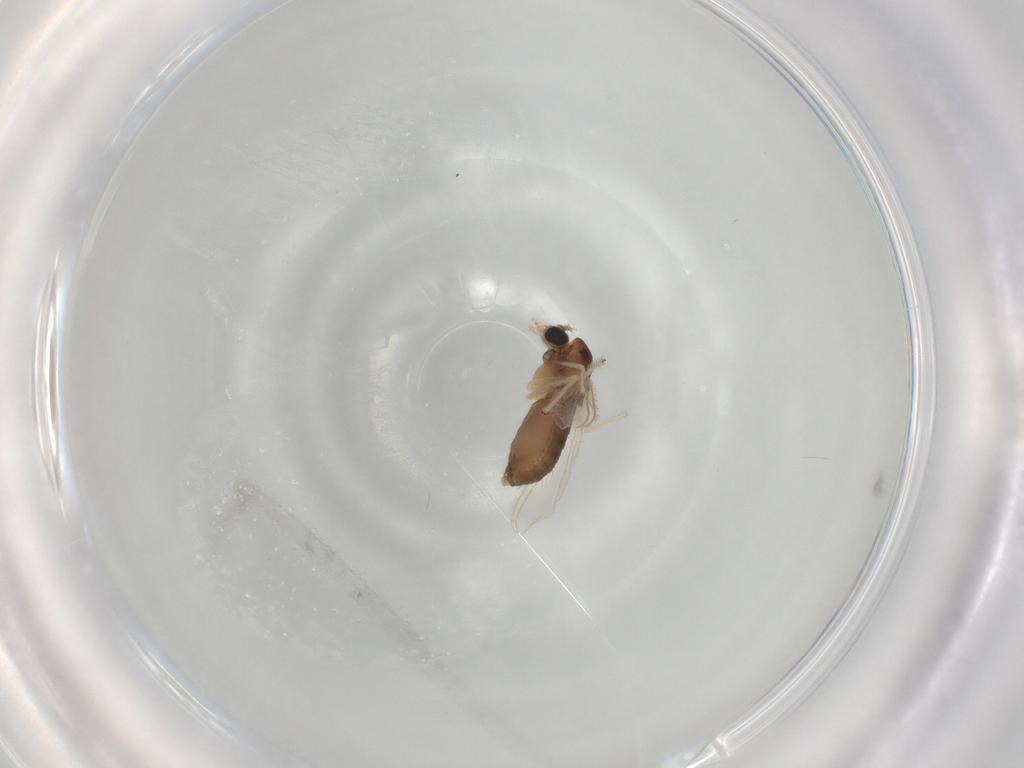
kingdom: Animalia
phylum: Arthropoda
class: Insecta
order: Diptera
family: Chironomidae
